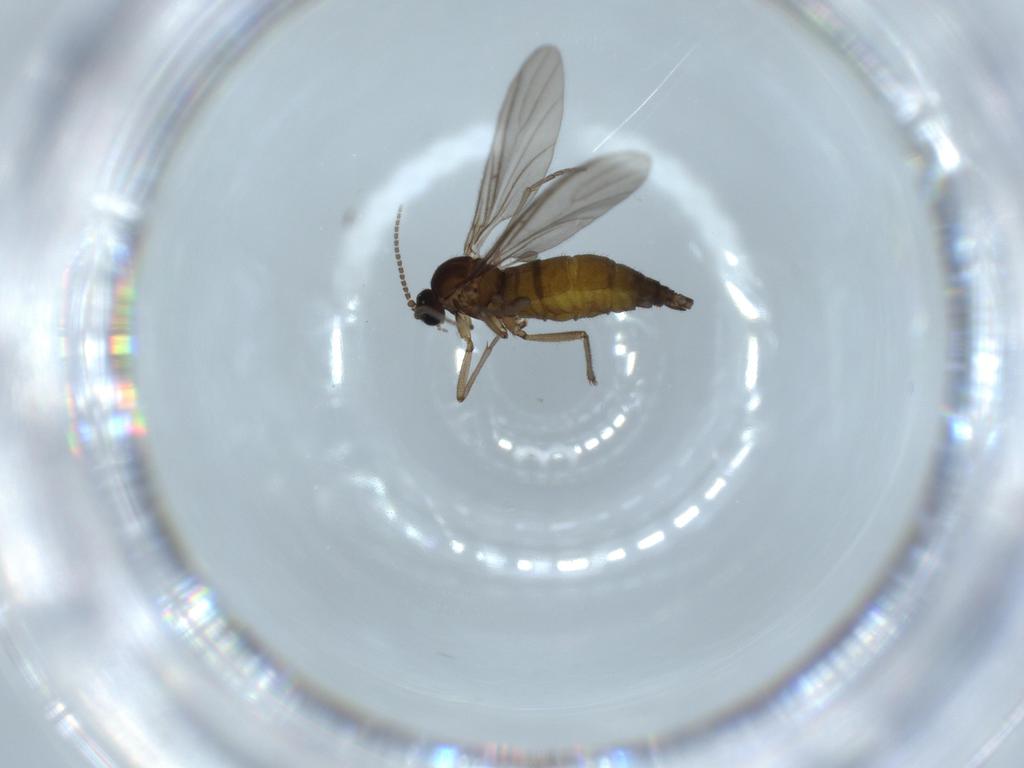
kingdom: Animalia
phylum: Arthropoda
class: Insecta
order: Diptera
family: Sciaridae
